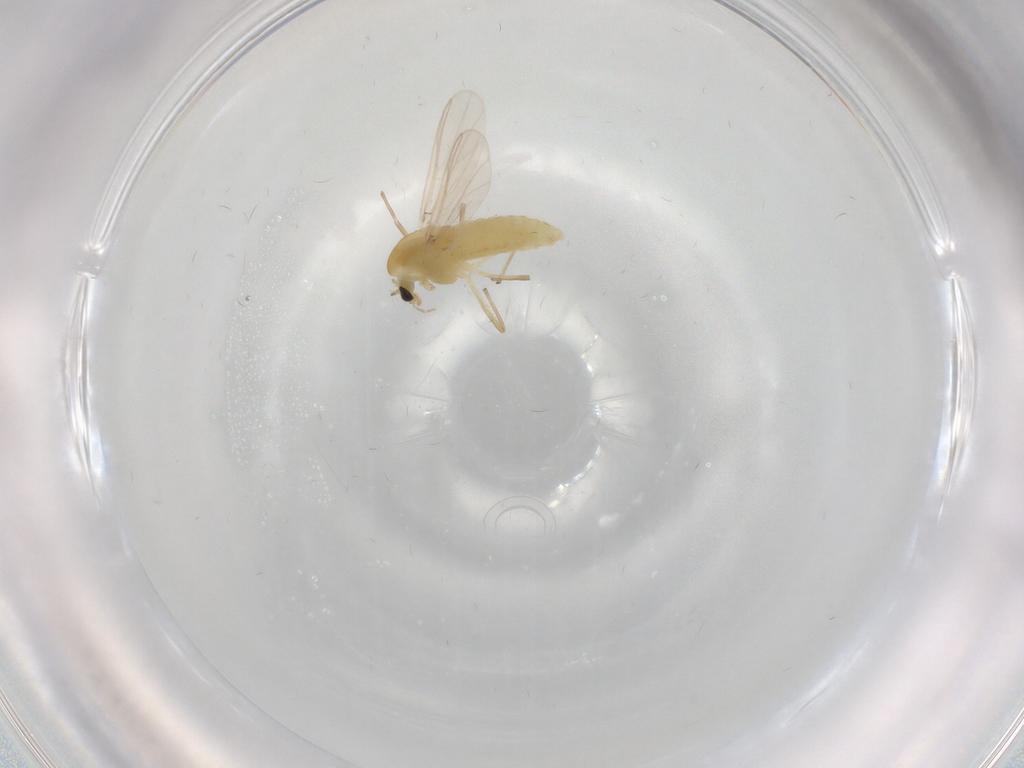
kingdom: Animalia
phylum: Arthropoda
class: Insecta
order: Diptera
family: Chironomidae
